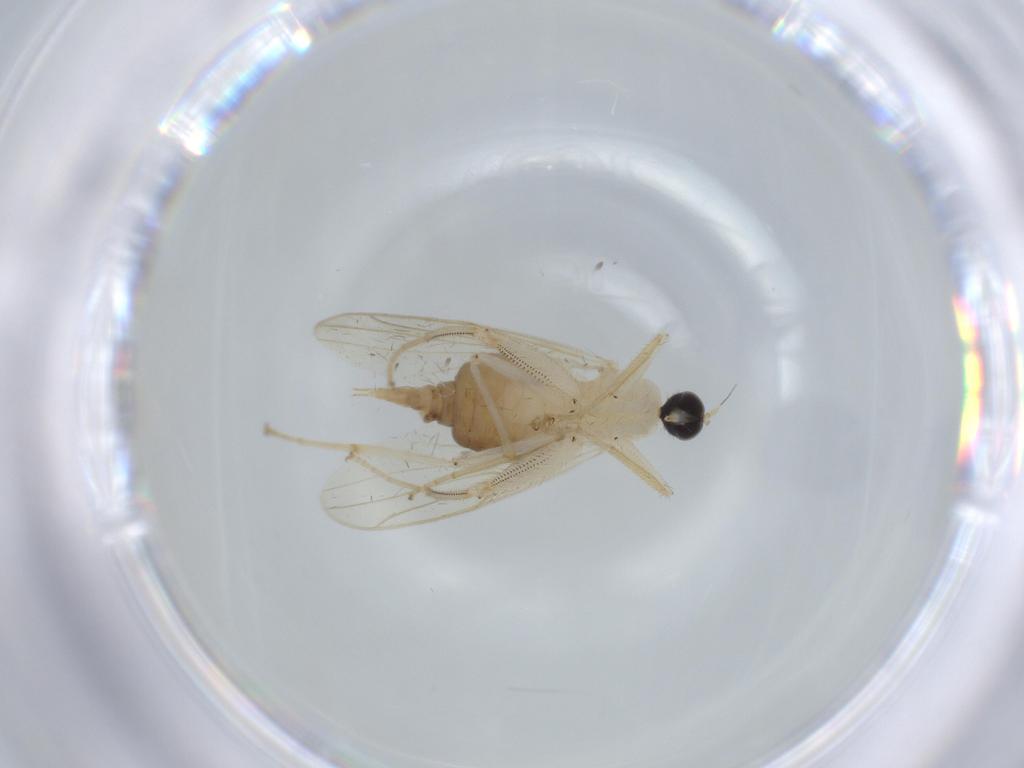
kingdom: Animalia
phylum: Arthropoda
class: Insecta
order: Diptera
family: Hybotidae
